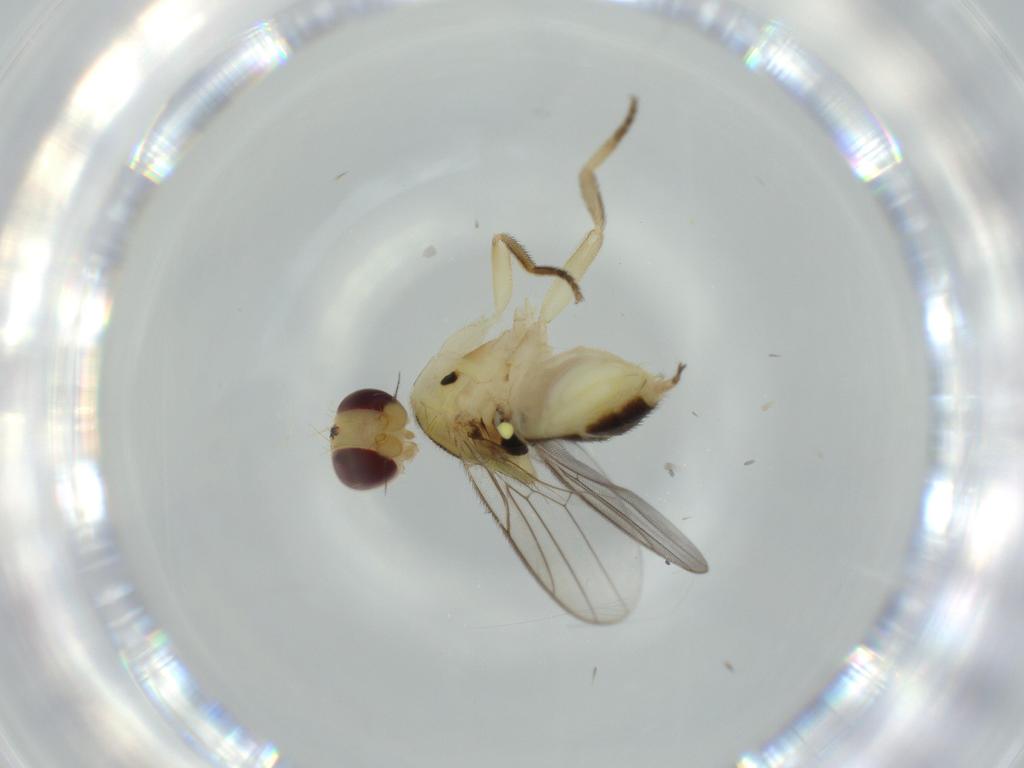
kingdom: Animalia
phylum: Arthropoda
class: Insecta
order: Diptera
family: Chloropidae
